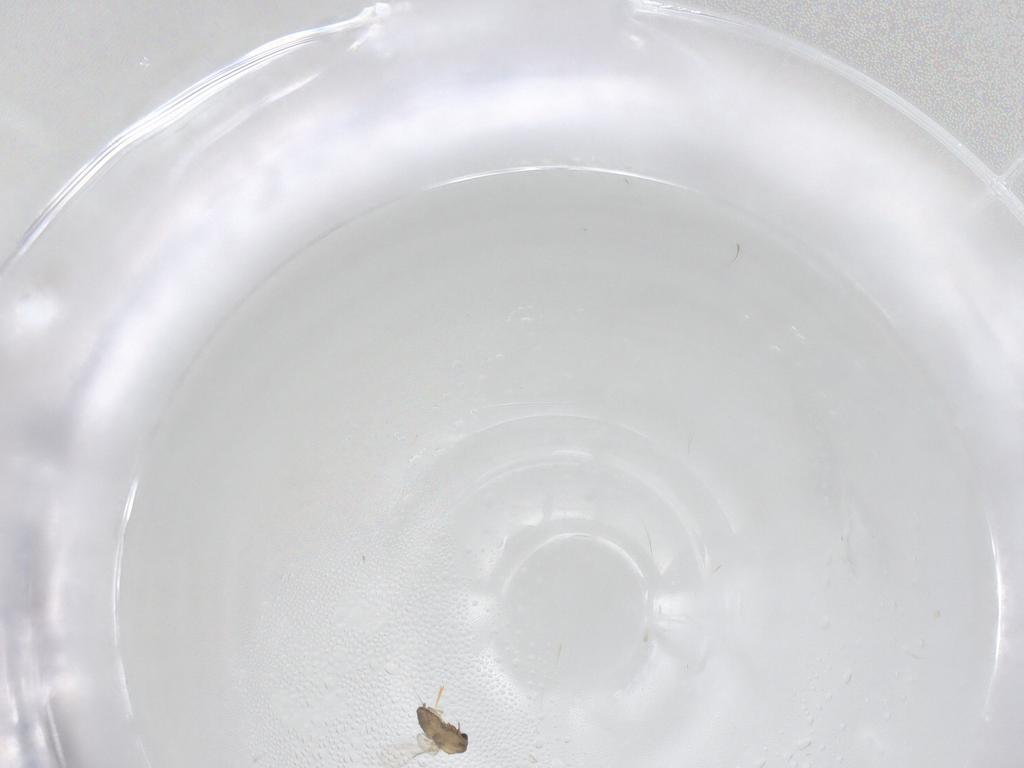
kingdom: Animalia
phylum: Arthropoda
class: Insecta
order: Diptera
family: Chironomidae
